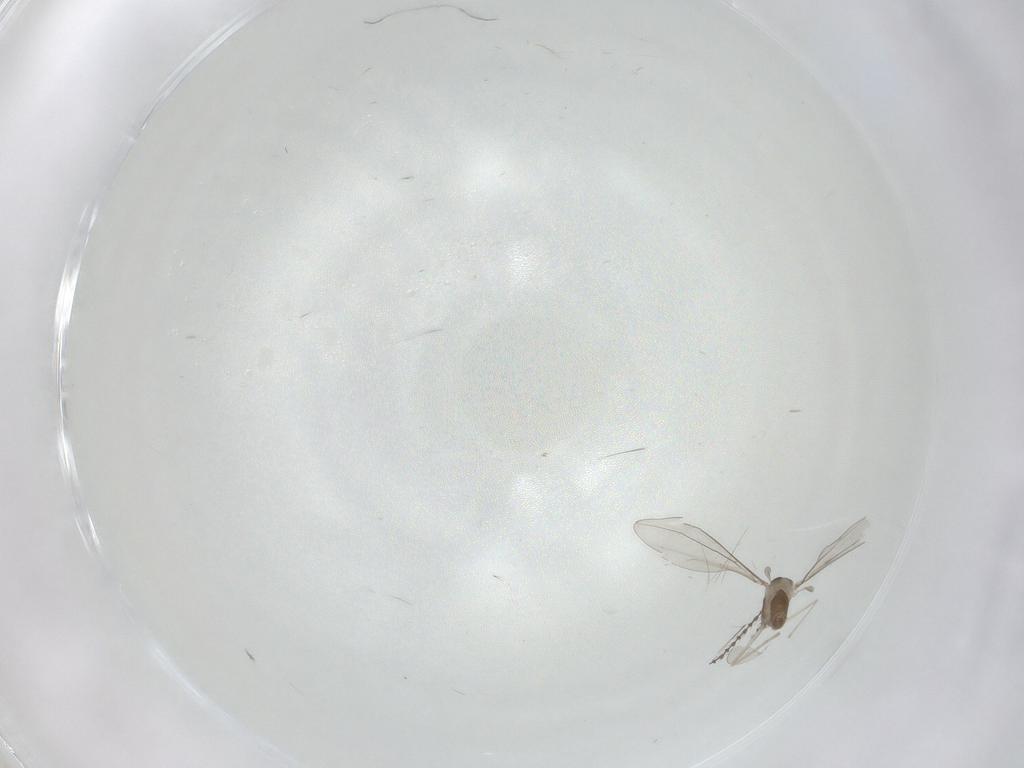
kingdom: Animalia
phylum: Arthropoda
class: Insecta
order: Diptera
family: Cecidomyiidae
